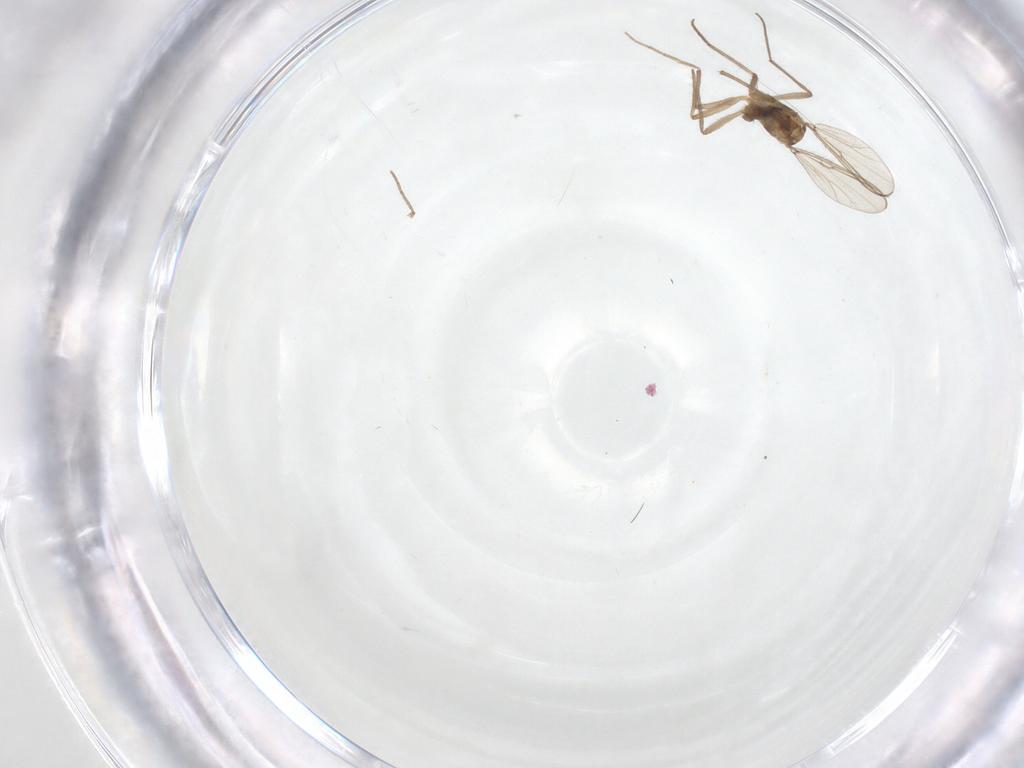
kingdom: Animalia
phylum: Arthropoda
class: Insecta
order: Diptera
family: Chironomidae
